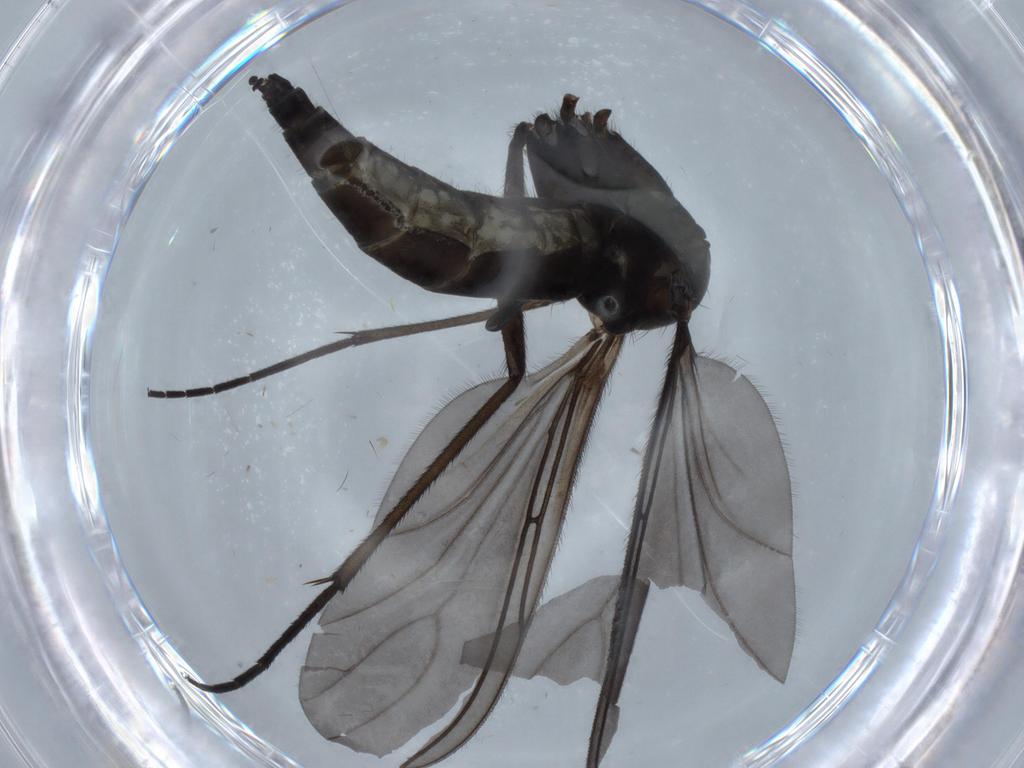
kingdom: Animalia
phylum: Arthropoda
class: Insecta
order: Diptera
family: Sciaridae
